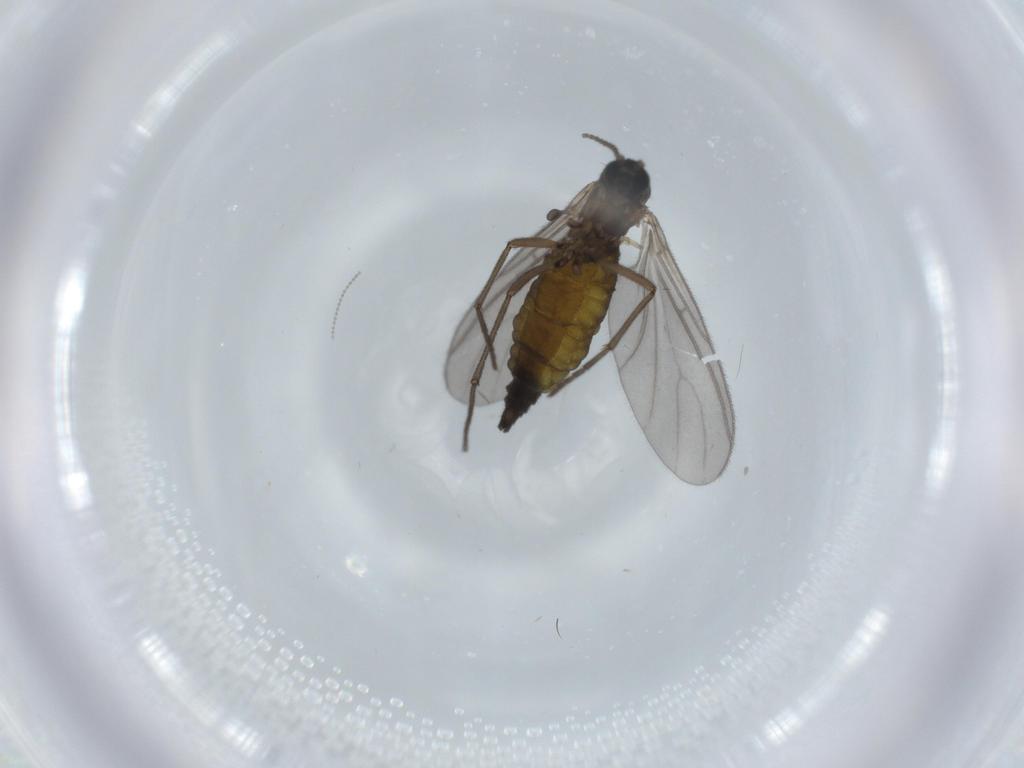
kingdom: Animalia
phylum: Arthropoda
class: Insecta
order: Diptera
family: Sciaridae
